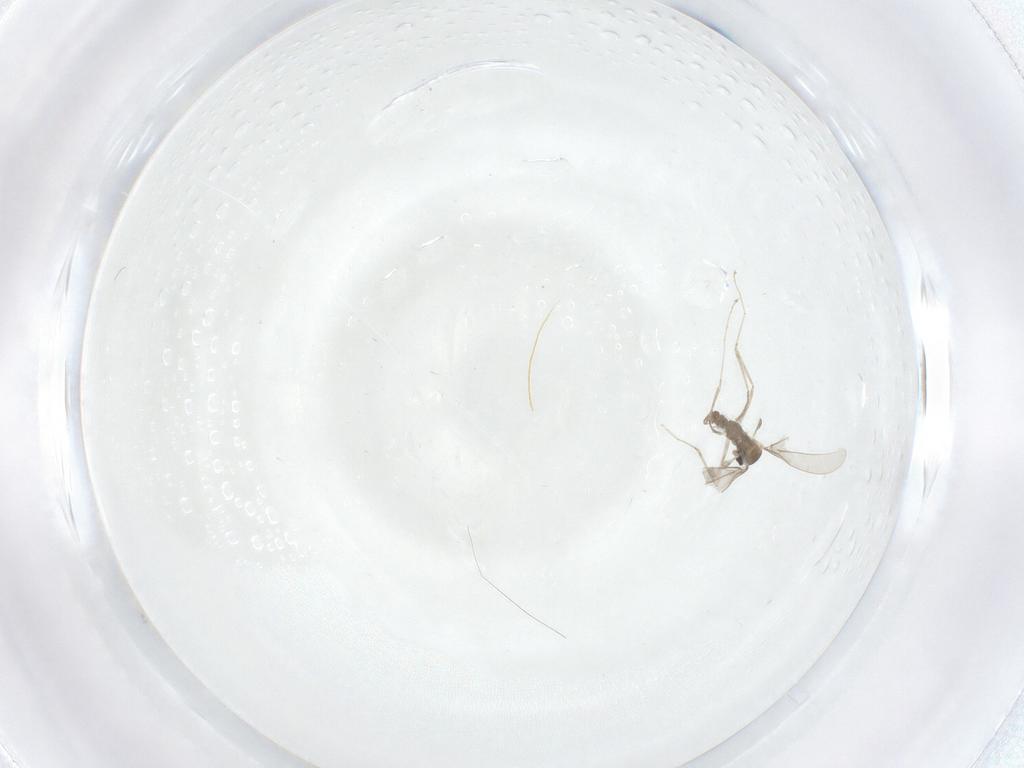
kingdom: Animalia
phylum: Arthropoda
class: Insecta
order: Diptera
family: Cecidomyiidae
